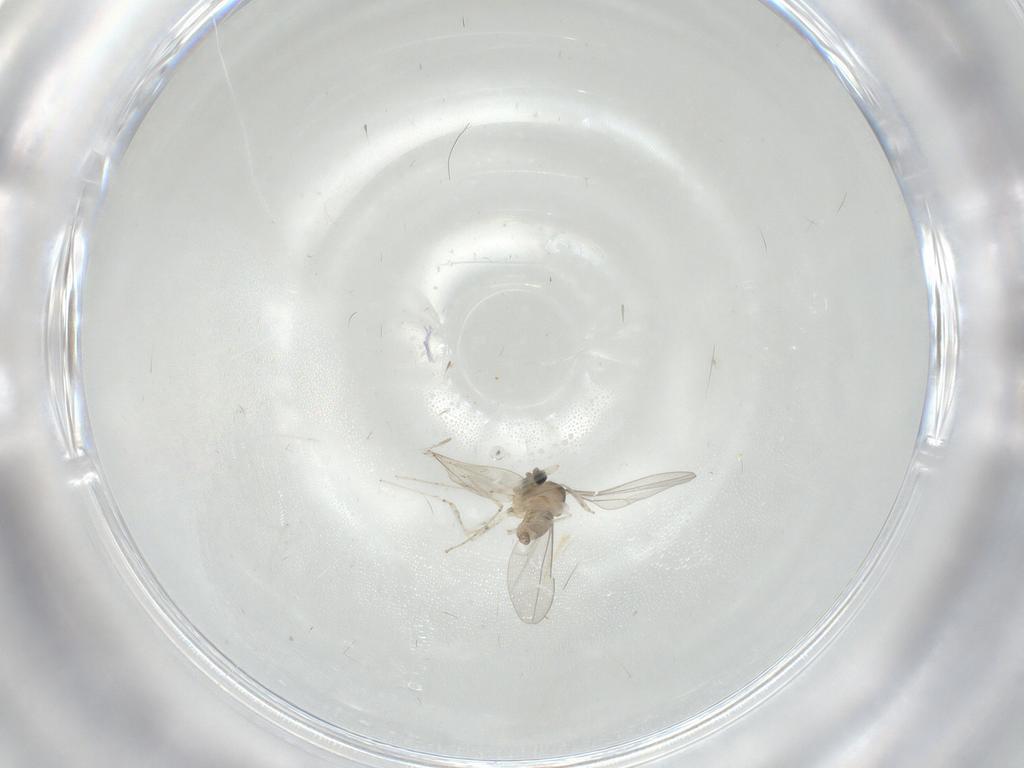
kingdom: Animalia
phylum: Arthropoda
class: Insecta
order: Diptera
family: Cecidomyiidae
